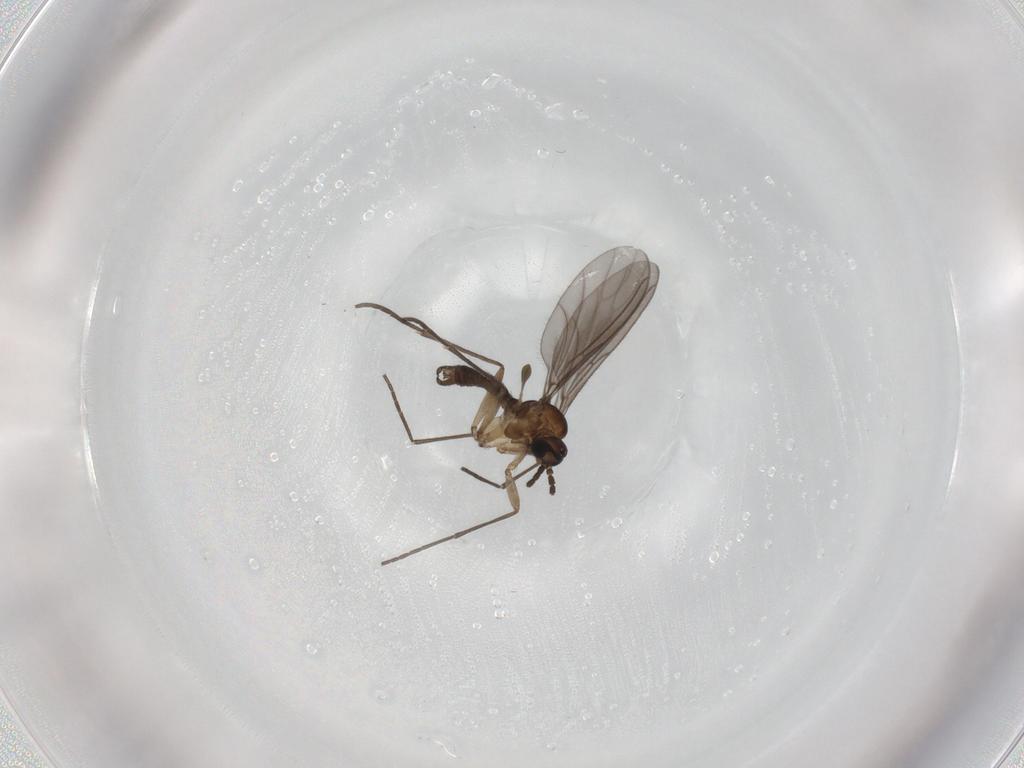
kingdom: Animalia
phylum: Arthropoda
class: Insecta
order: Diptera
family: Sciaridae
